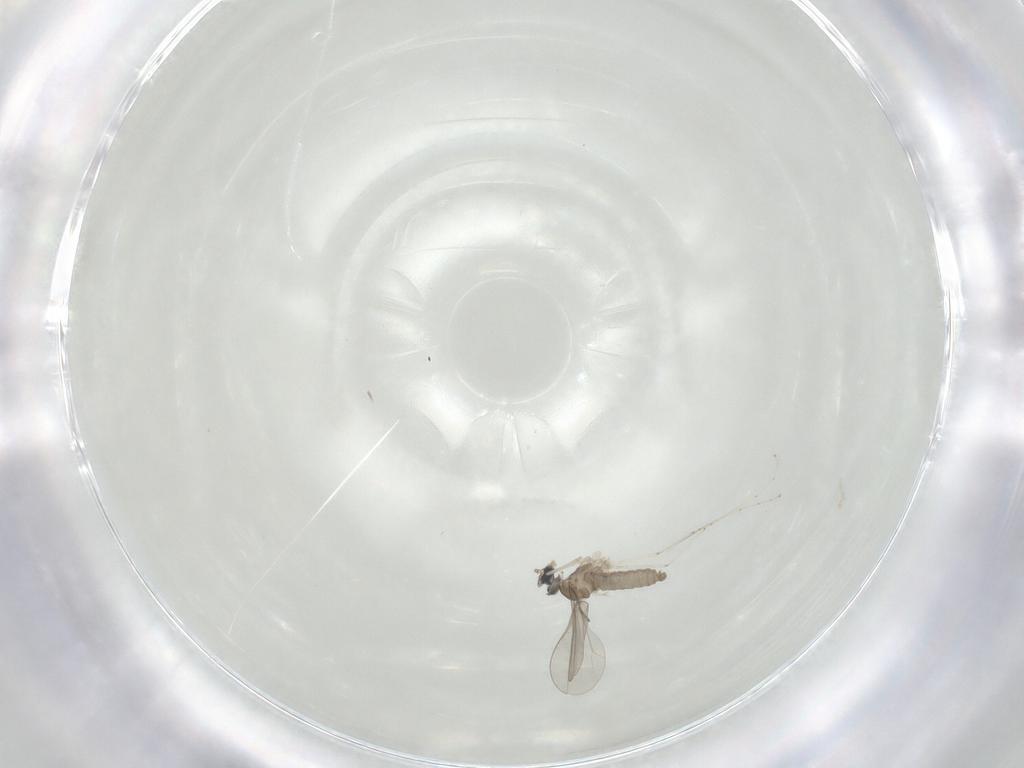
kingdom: Animalia
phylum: Arthropoda
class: Insecta
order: Diptera
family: Cecidomyiidae
